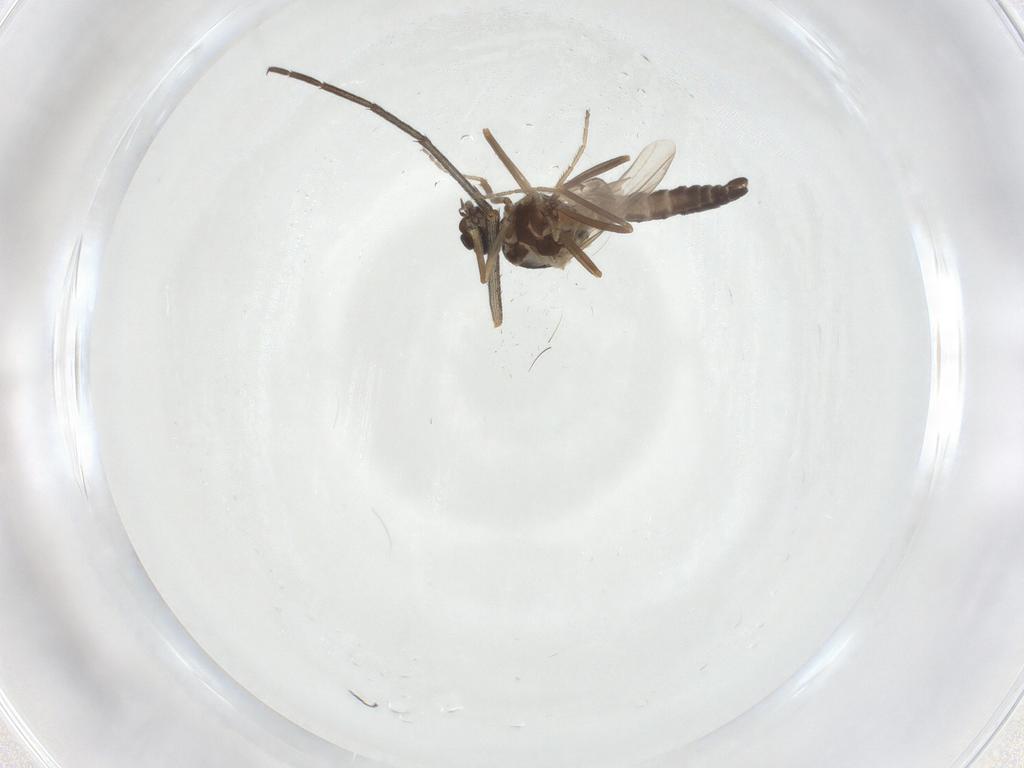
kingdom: Animalia
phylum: Arthropoda
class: Insecta
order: Diptera
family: Ceratopogonidae
